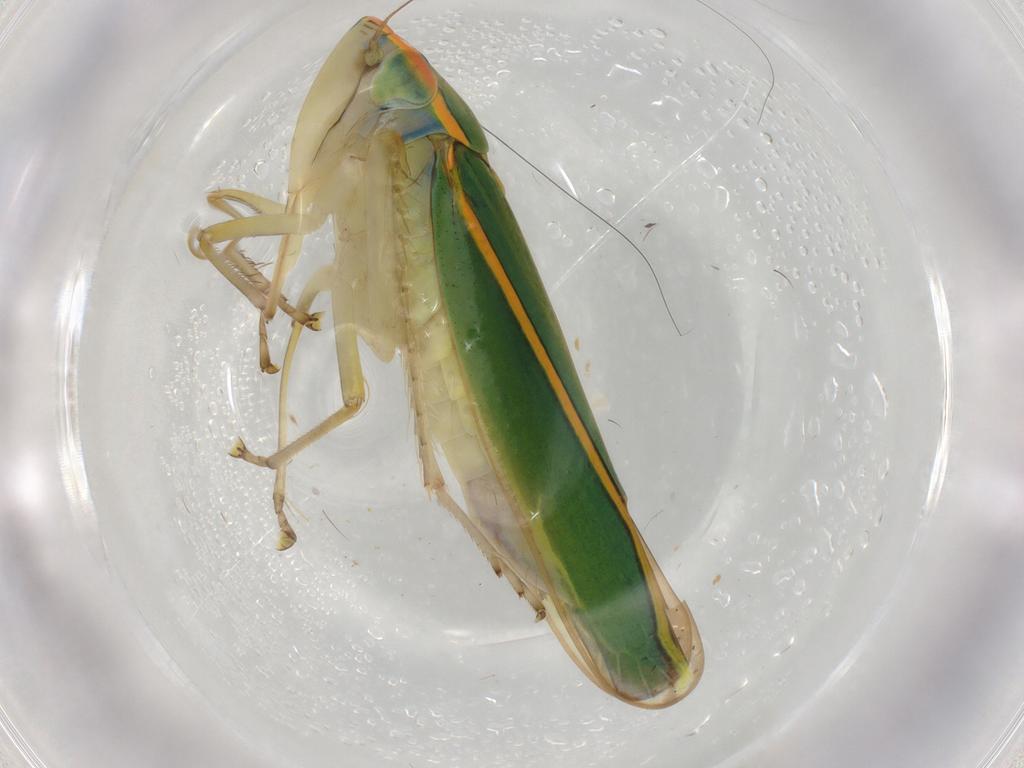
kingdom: Animalia
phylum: Arthropoda
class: Insecta
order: Hemiptera
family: Cicadellidae
